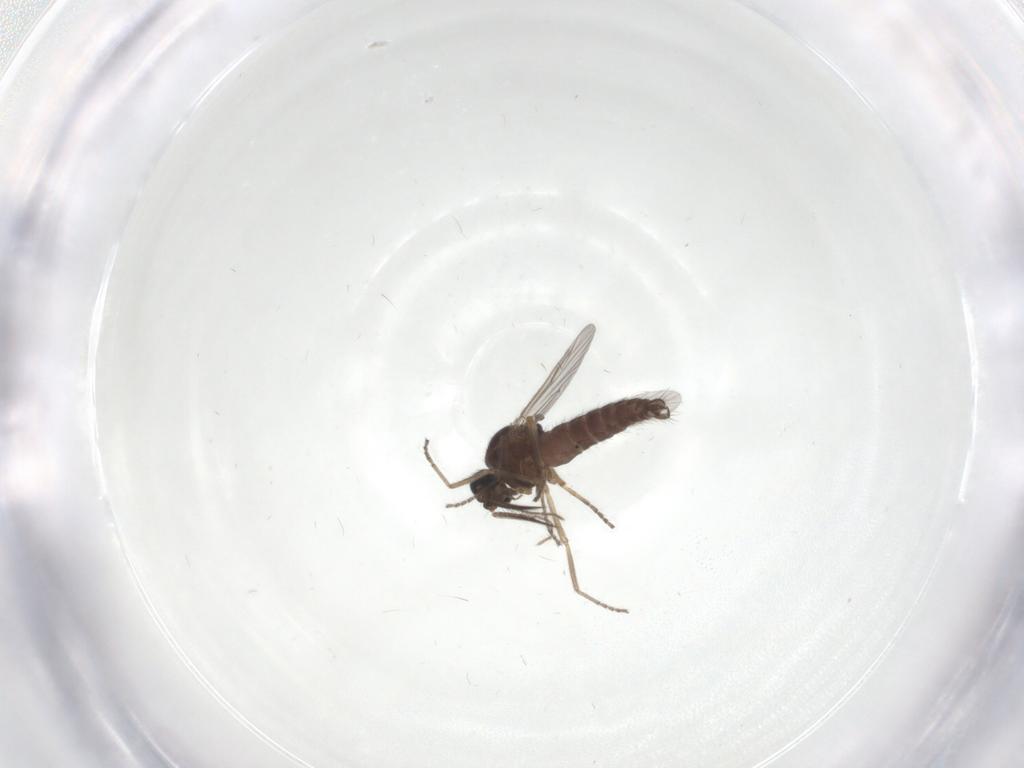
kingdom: Animalia
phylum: Arthropoda
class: Insecta
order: Diptera
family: Ceratopogonidae
